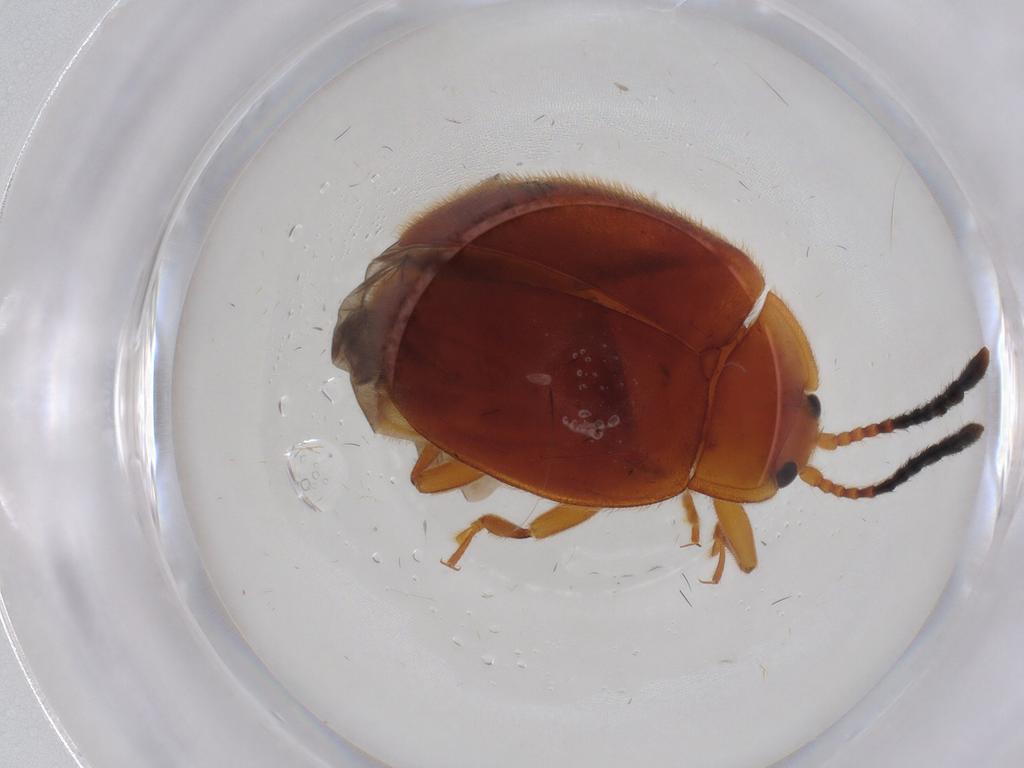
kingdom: Animalia
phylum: Arthropoda
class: Insecta
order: Coleoptera
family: Endomychidae
